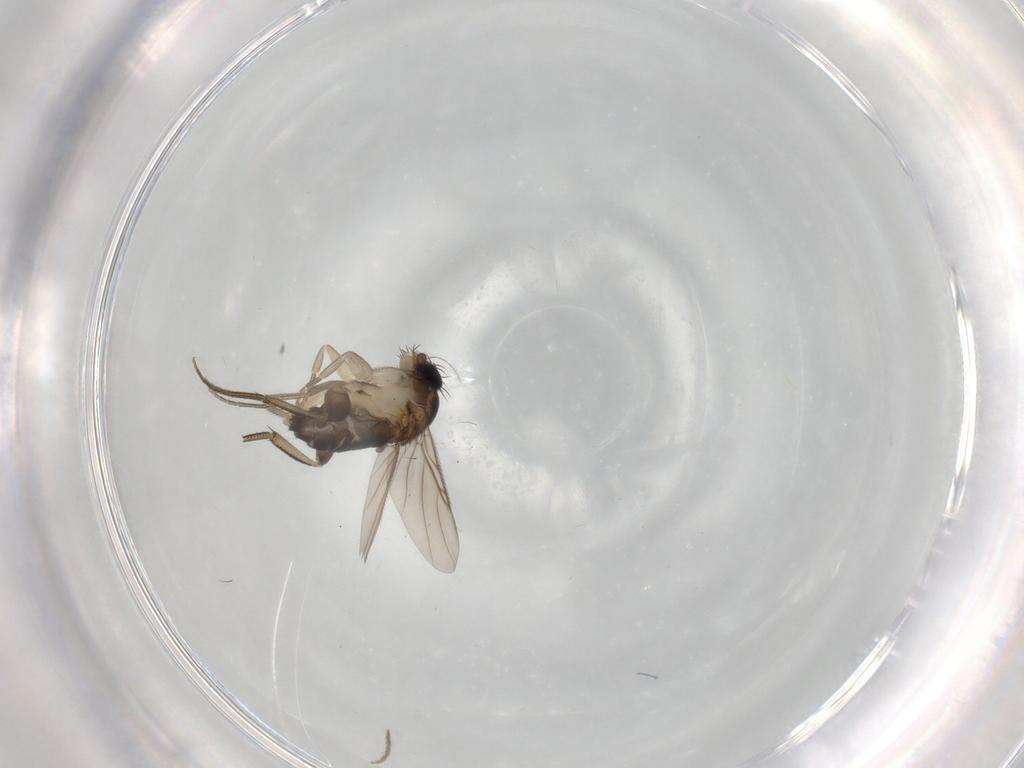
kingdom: Animalia
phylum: Arthropoda
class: Insecta
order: Diptera
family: Phoridae
